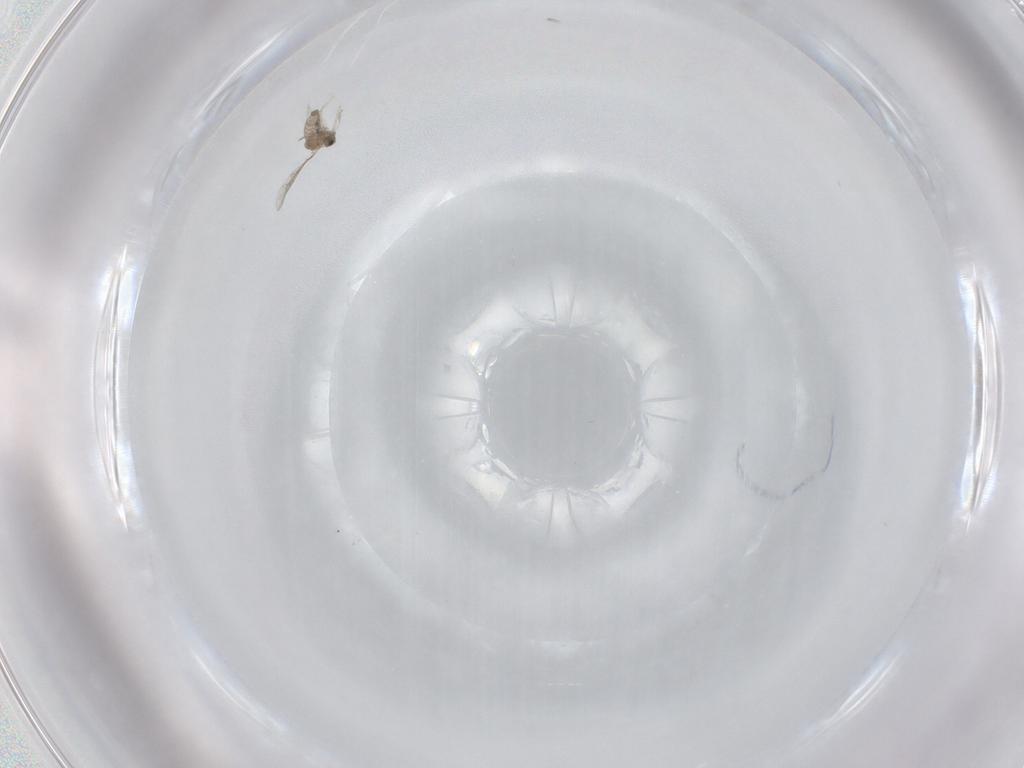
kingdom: Animalia
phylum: Arthropoda
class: Insecta
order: Diptera
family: Cecidomyiidae
